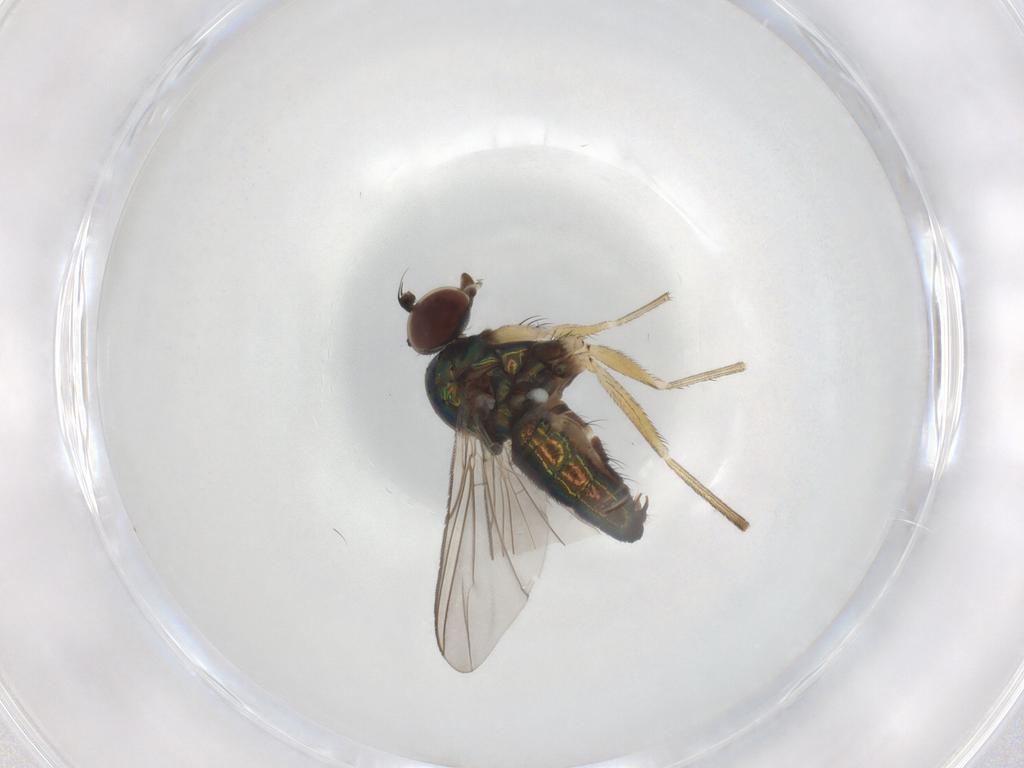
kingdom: Animalia
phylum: Arthropoda
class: Insecta
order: Diptera
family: Dolichopodidae
